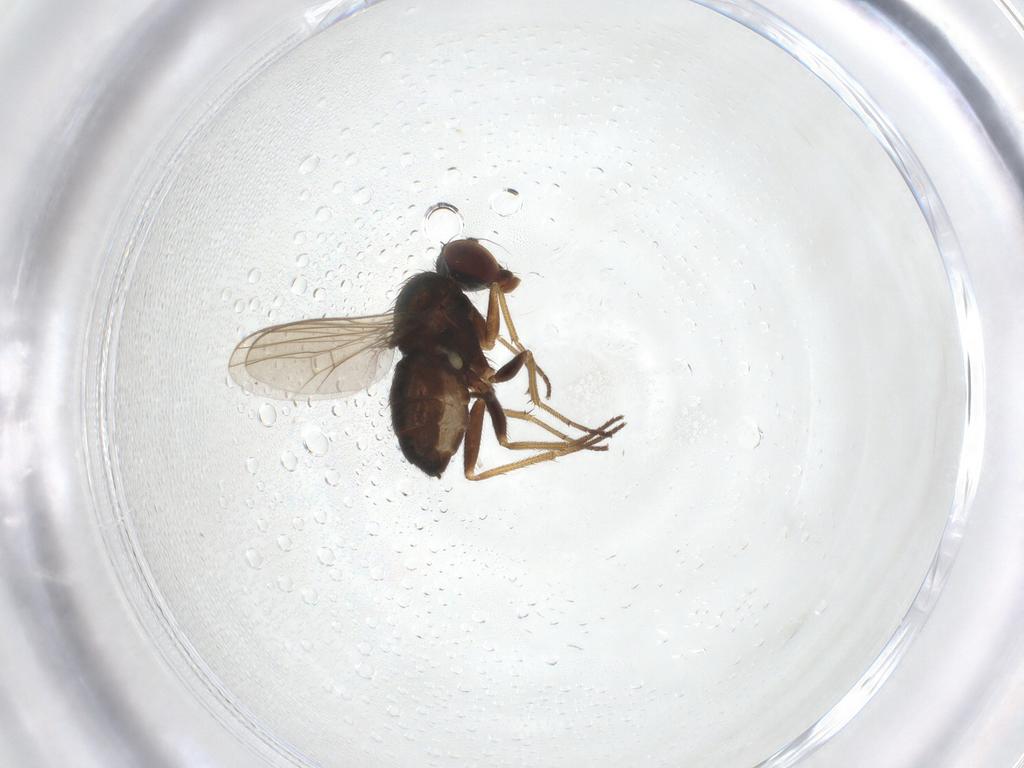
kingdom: Animalia
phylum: Arthropoda
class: Insecta
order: Diptera
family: Dolichopodidae
